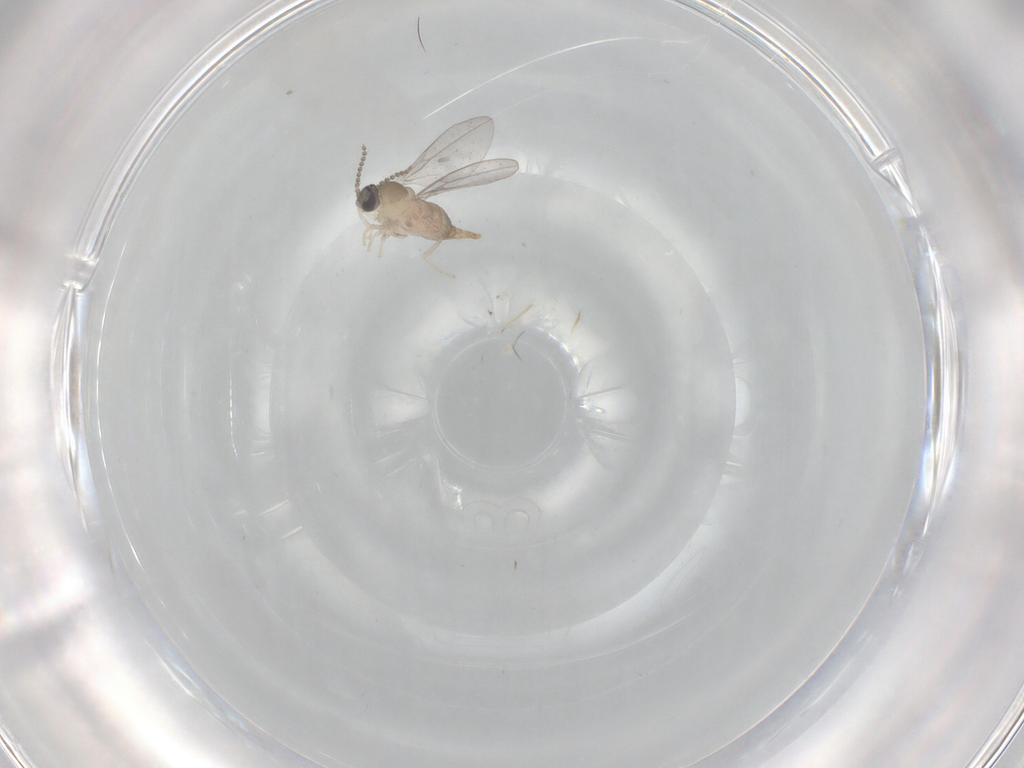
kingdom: Animalia
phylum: Arthropoda
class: Insecta
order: Diptera
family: Cecidomyiidae
